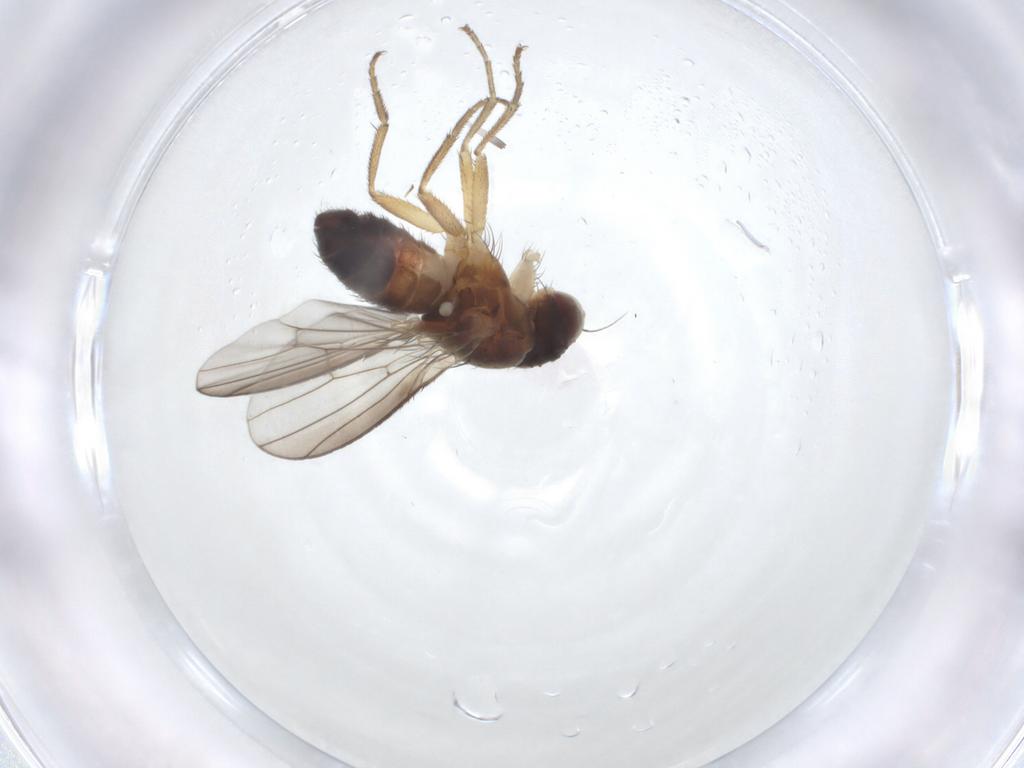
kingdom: Animalia
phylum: Arthropoda
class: Insecta
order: Diptera
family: Heleomyzidae
